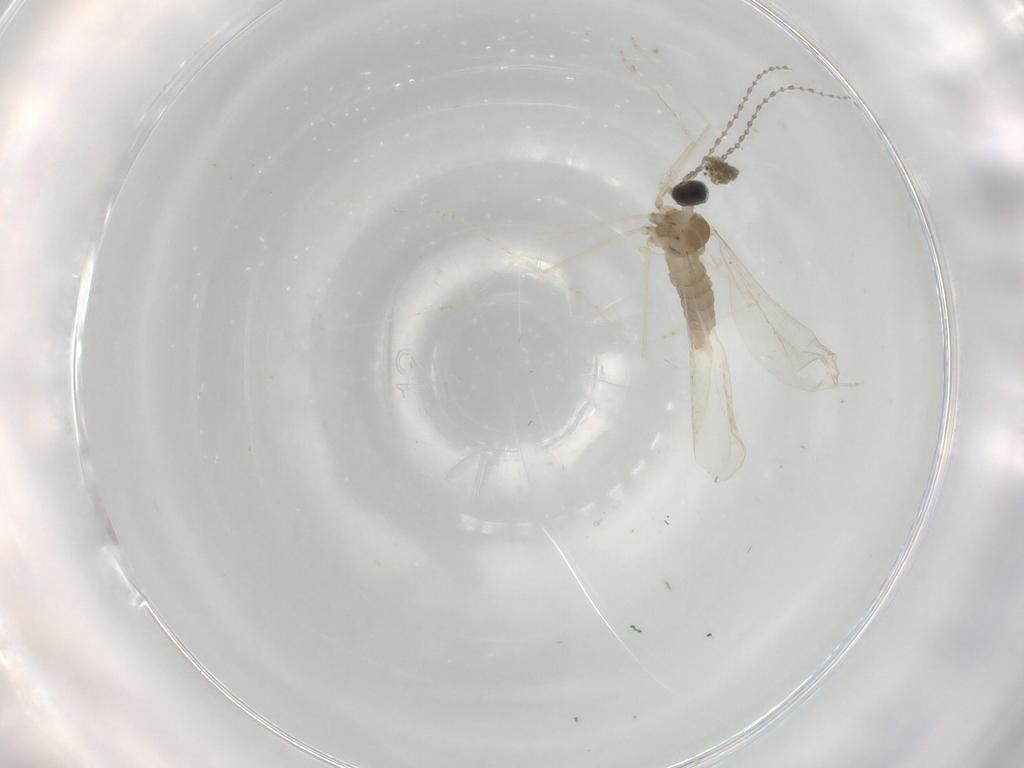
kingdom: Animalia
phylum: Arthropoda
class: Insecta
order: Diptera
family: Cecidomyiidae
